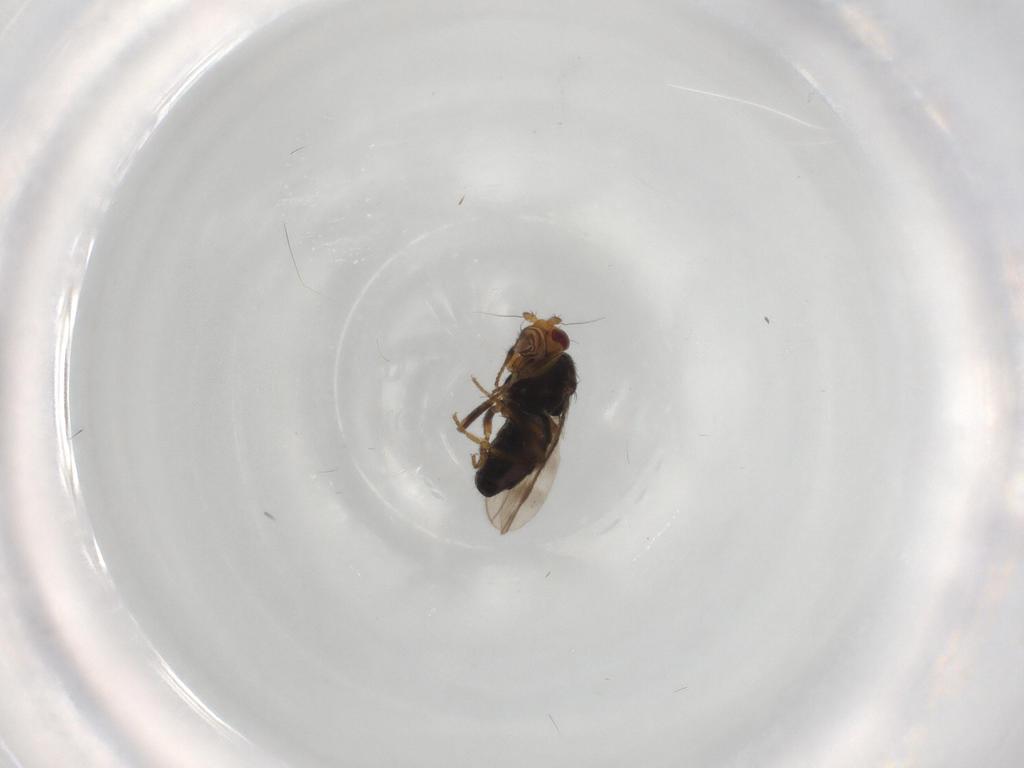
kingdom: Animalia
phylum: Arthropoda
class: Insecta
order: Diptera
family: Sphaeroceridae
